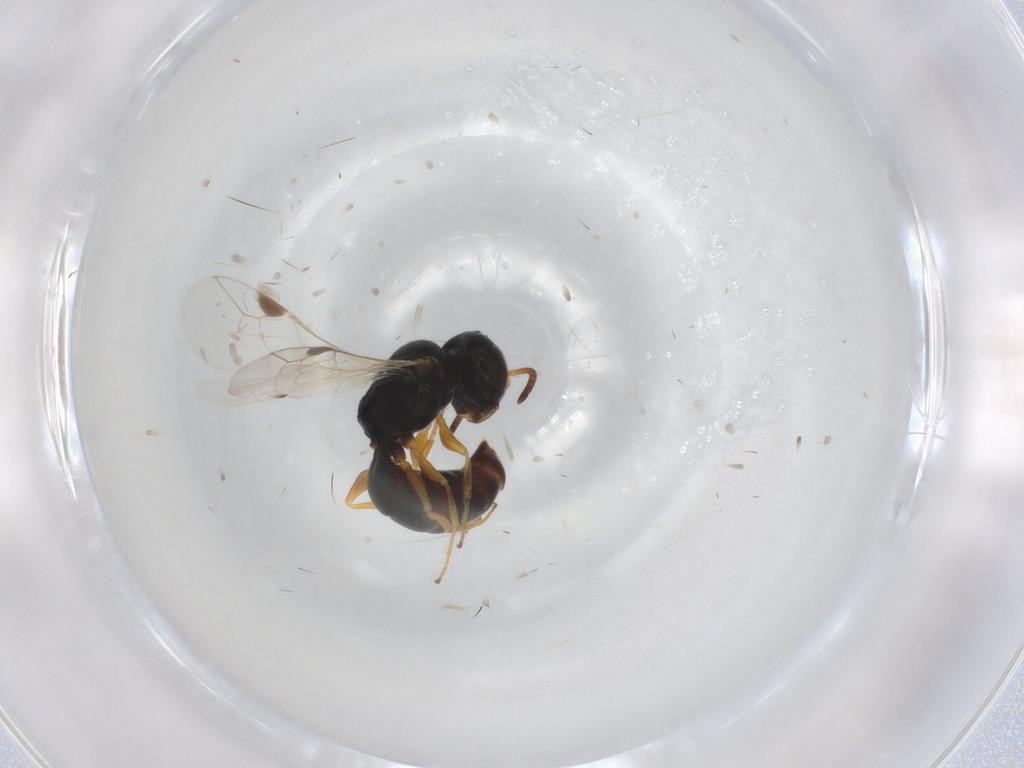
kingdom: Animalia
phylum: Arthropoda
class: Insecta
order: Hymenoptera
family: Pemphredonidae
